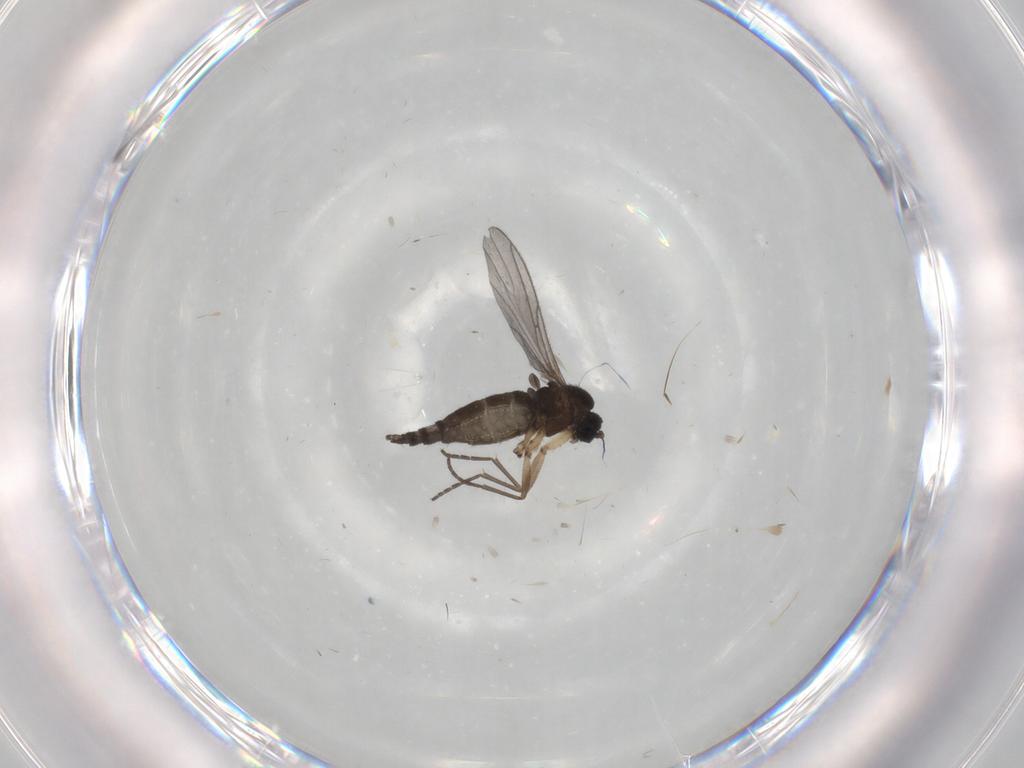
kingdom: Animalia
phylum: Arthropoda
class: Insecta
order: Diptera
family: Sciaridae
